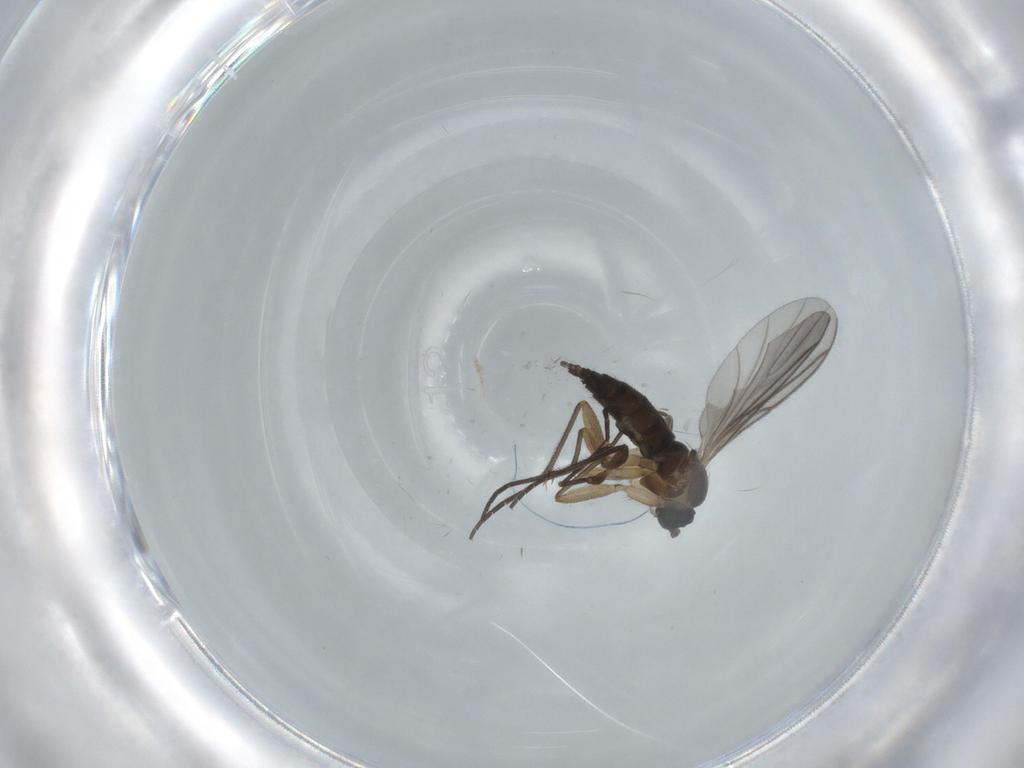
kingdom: Animalia
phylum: Arthropoda
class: Insecta
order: Diptera
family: Sciaridae
